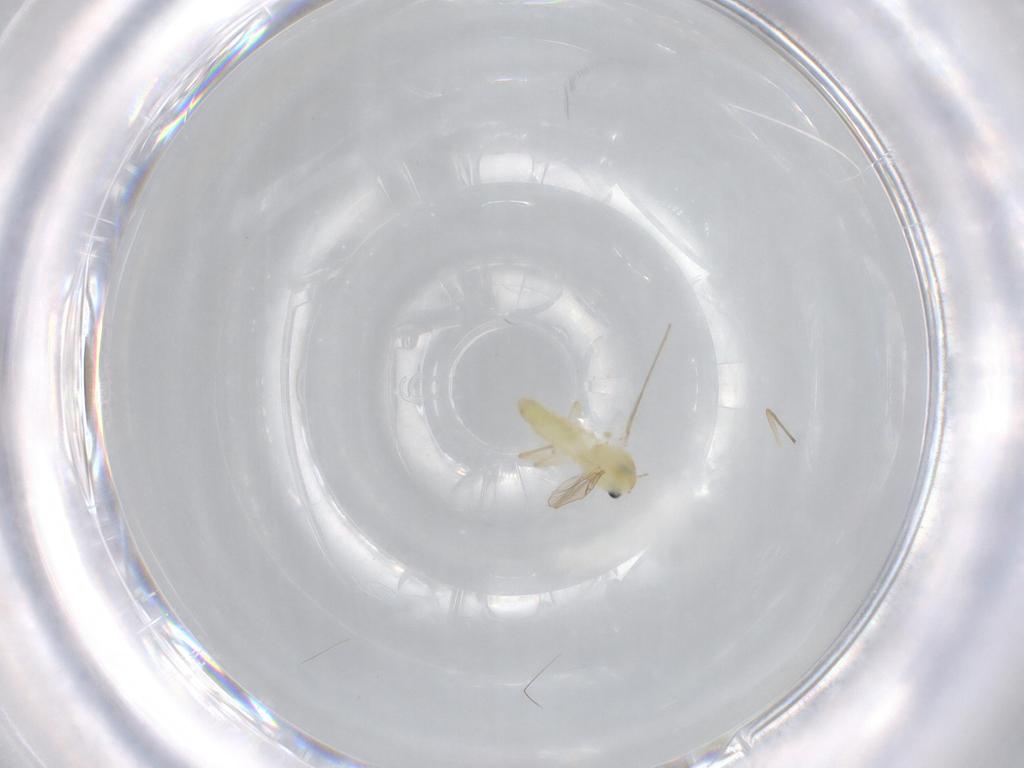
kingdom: Animalia
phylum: Arthropoda
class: Insecta
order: Diptera
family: Chironomidae
